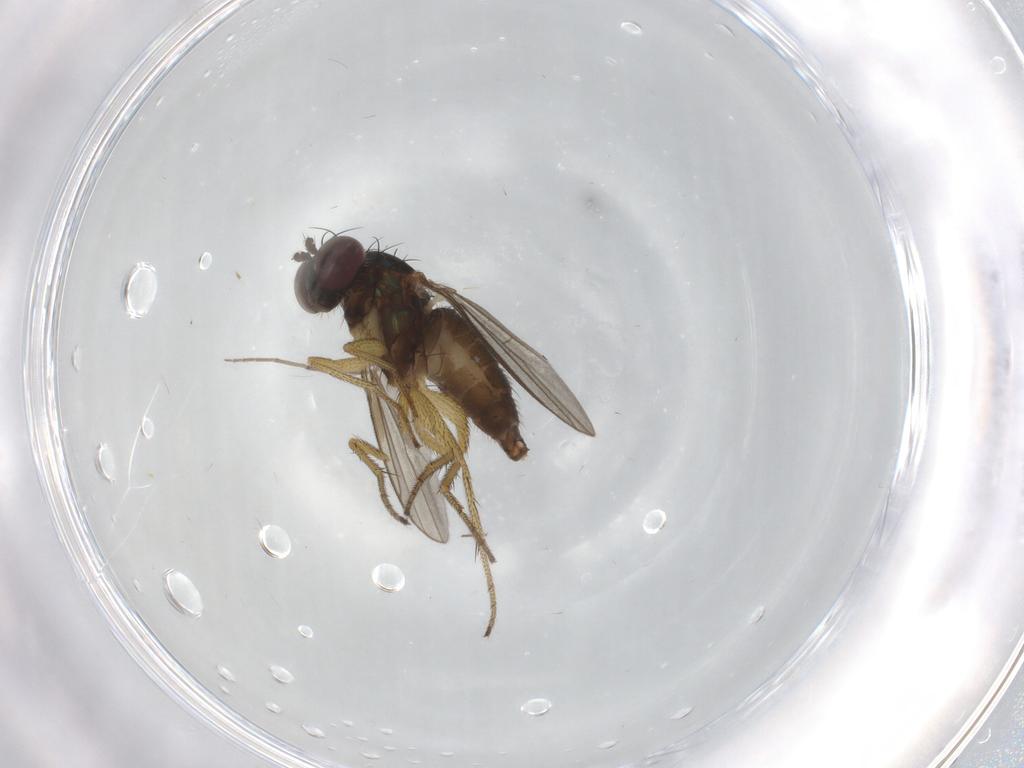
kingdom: Animalia
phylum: Arthropoda
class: Insecta
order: Diptera
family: Chironomidae
